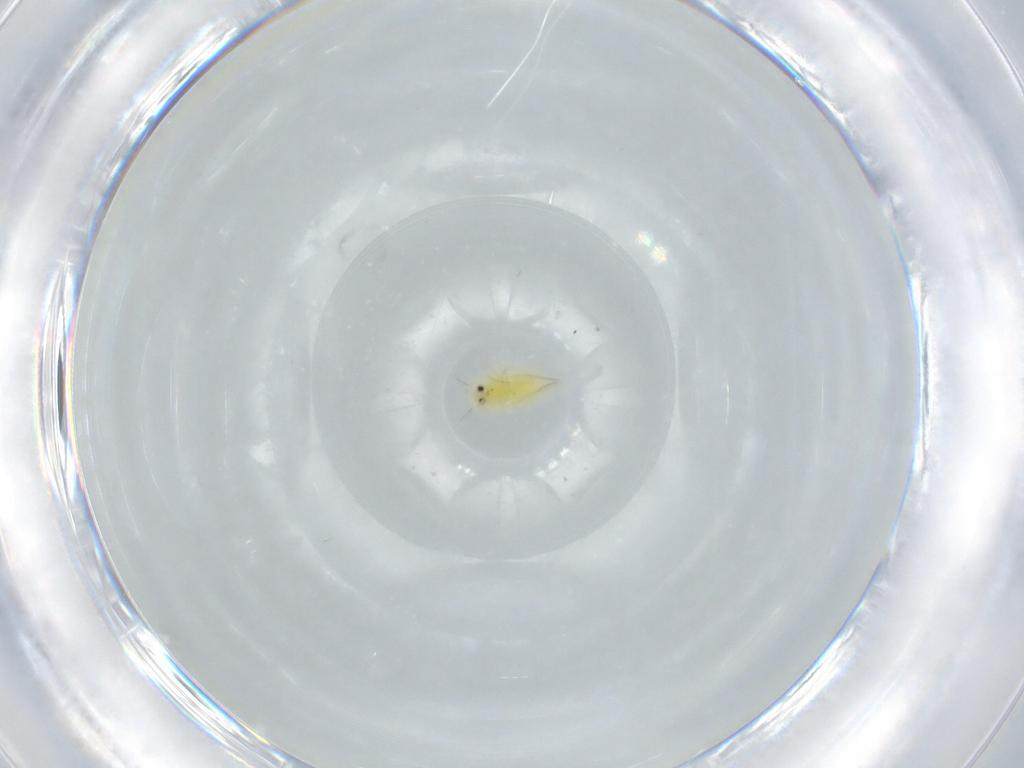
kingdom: Animalia
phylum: Arthropoda
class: Insecta
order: Hemiptera
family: Aleyrodidae
